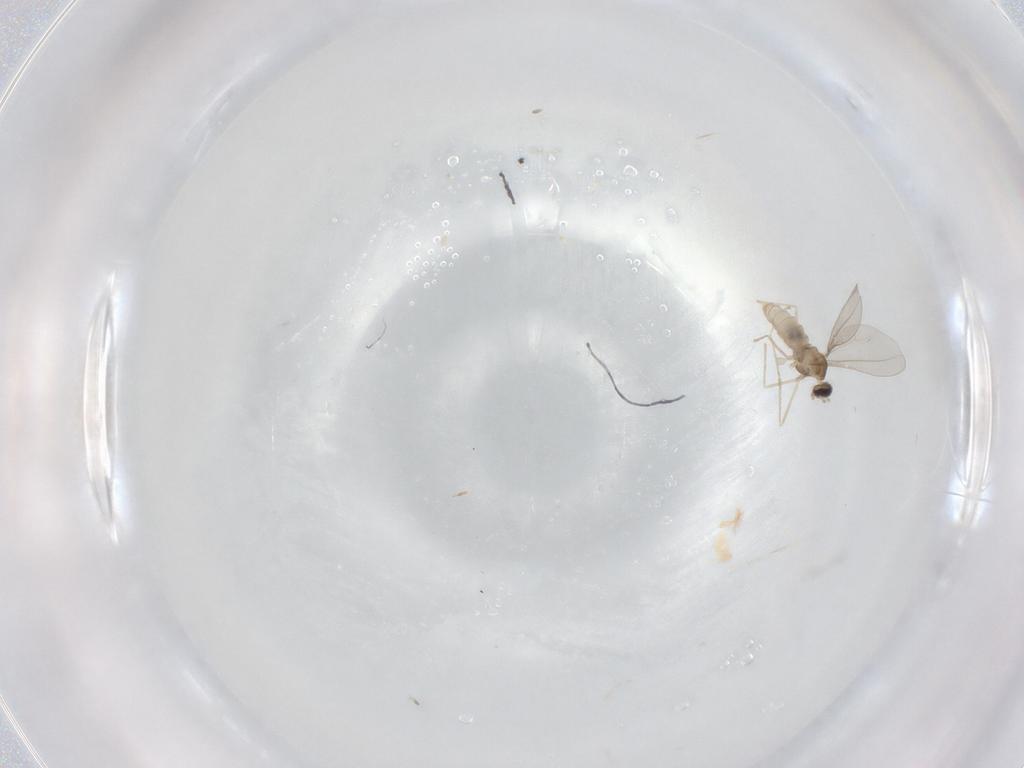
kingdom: Animalia
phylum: Arthropoda
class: Insecta
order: Diptera
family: Cecidomyiidae
